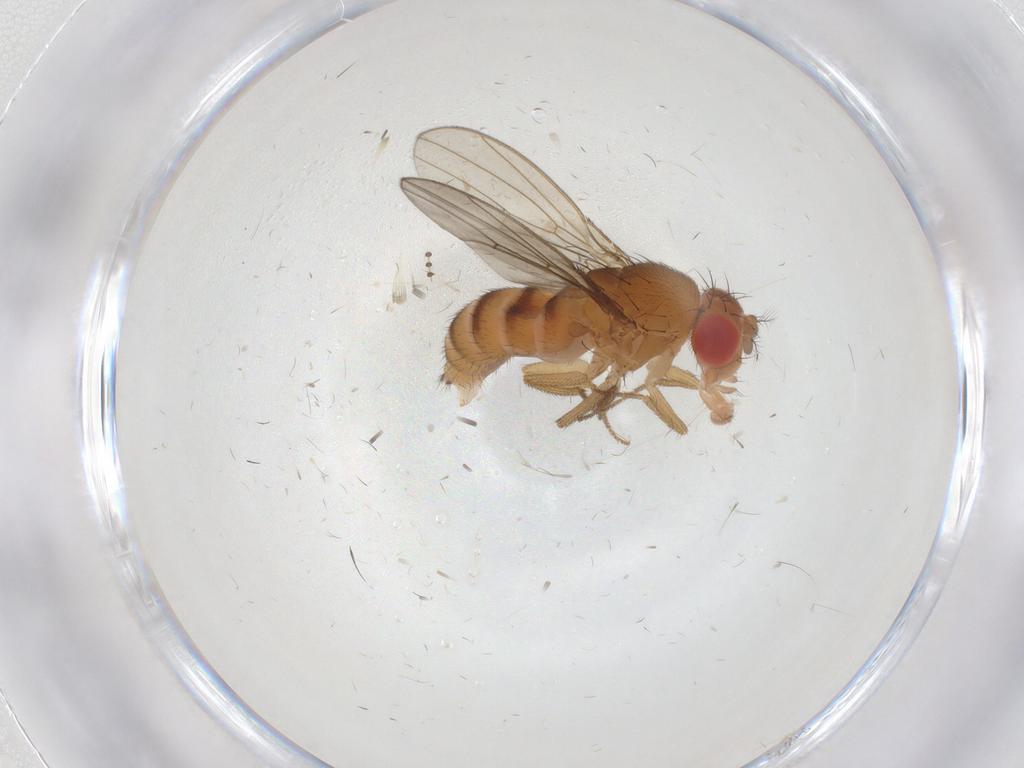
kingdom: Animalia
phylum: Arthropoda
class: Insecta
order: Diptera
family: Drosophilidae
